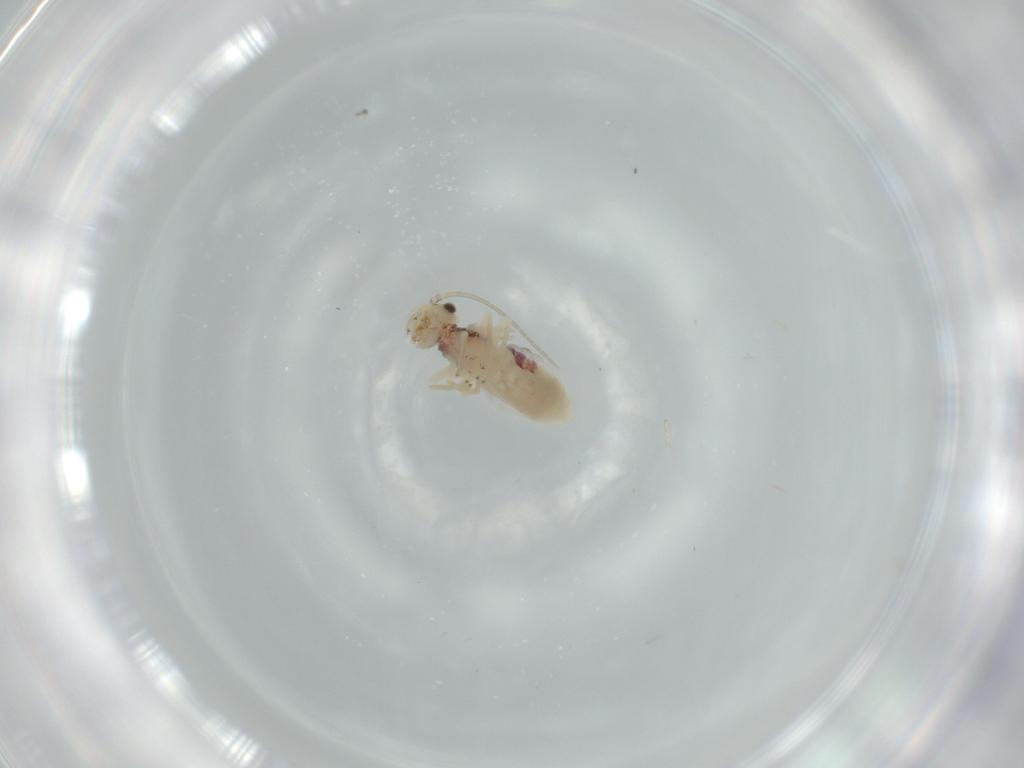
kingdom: Animalia
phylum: Arthropoda
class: Insecta
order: Psocodea
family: Caeciliusidae
